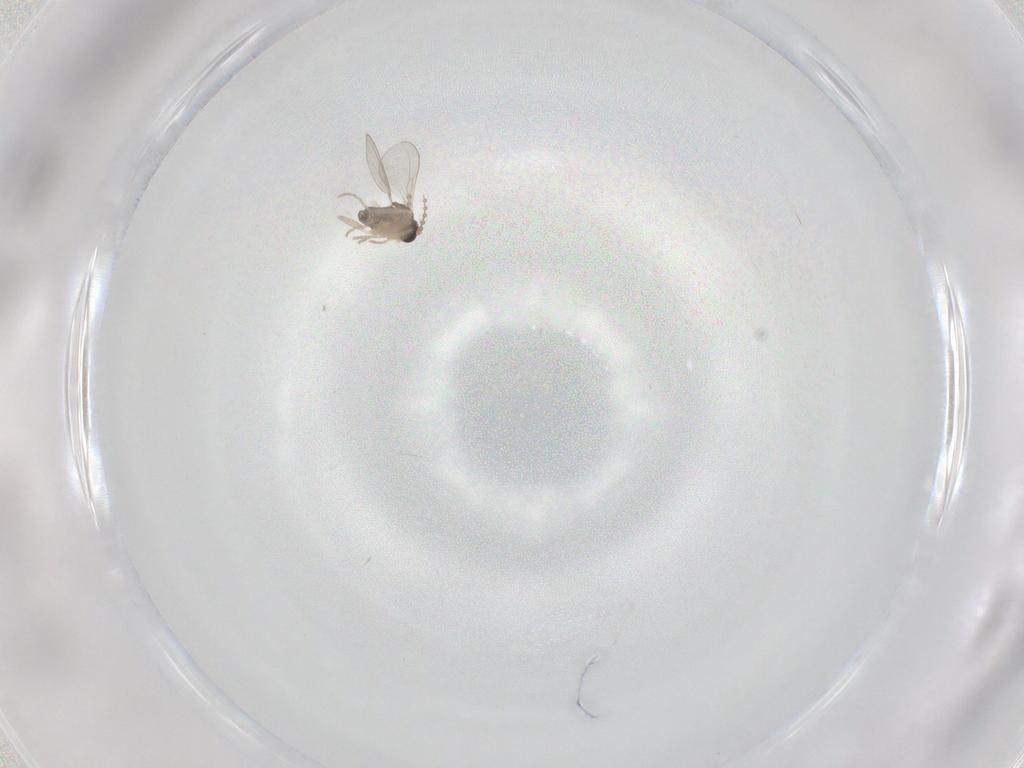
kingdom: Animalia
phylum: Arthropoda
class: Insecta
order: Diptera
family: Cecidomyiidae
